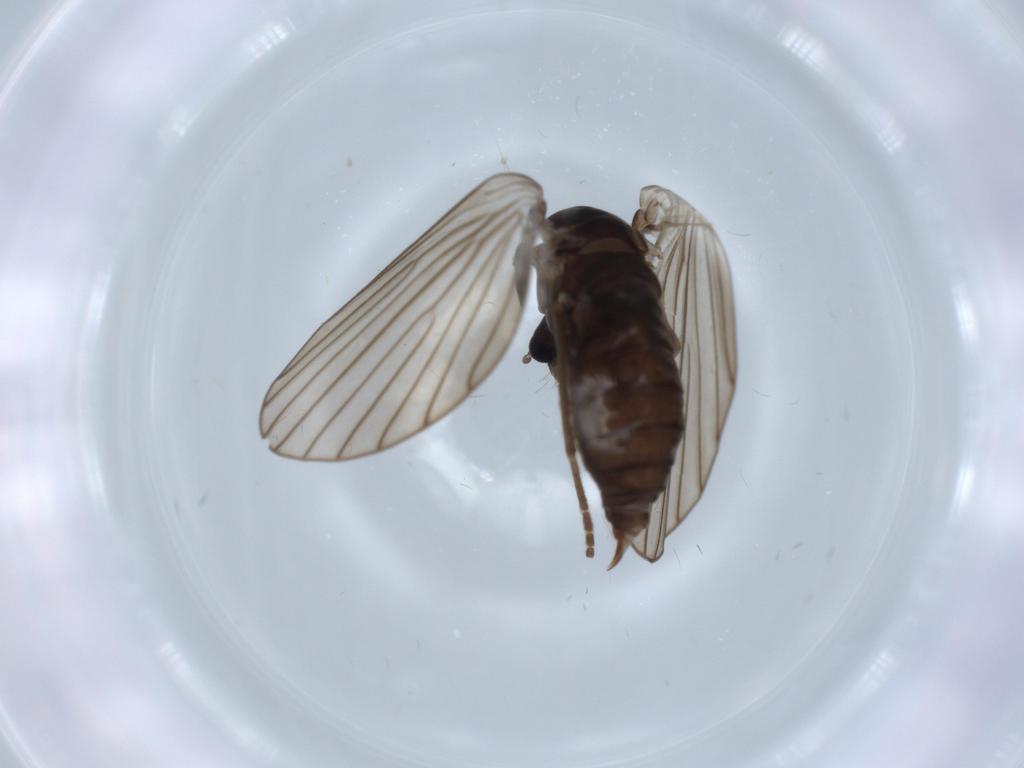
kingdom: Animalia
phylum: Arthropoda
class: Insecta
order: Diptera
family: Psychodidae
